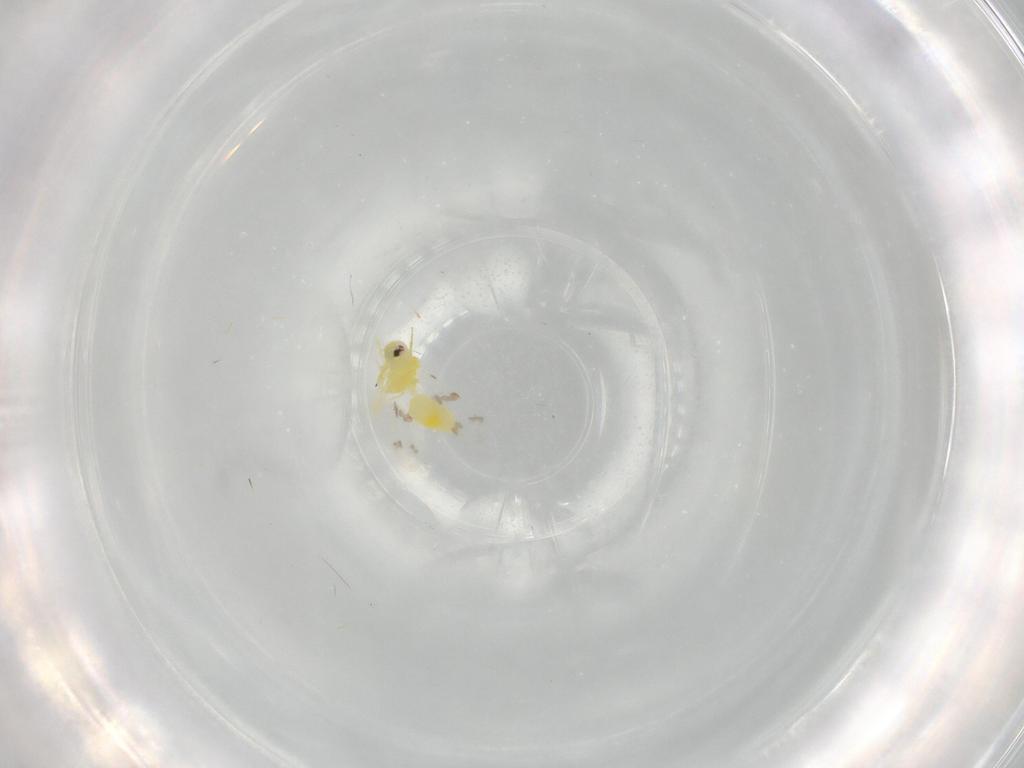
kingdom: Animalia
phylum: Arthropoda
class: Insecta
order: Hemiptera
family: Aleyrodidae
